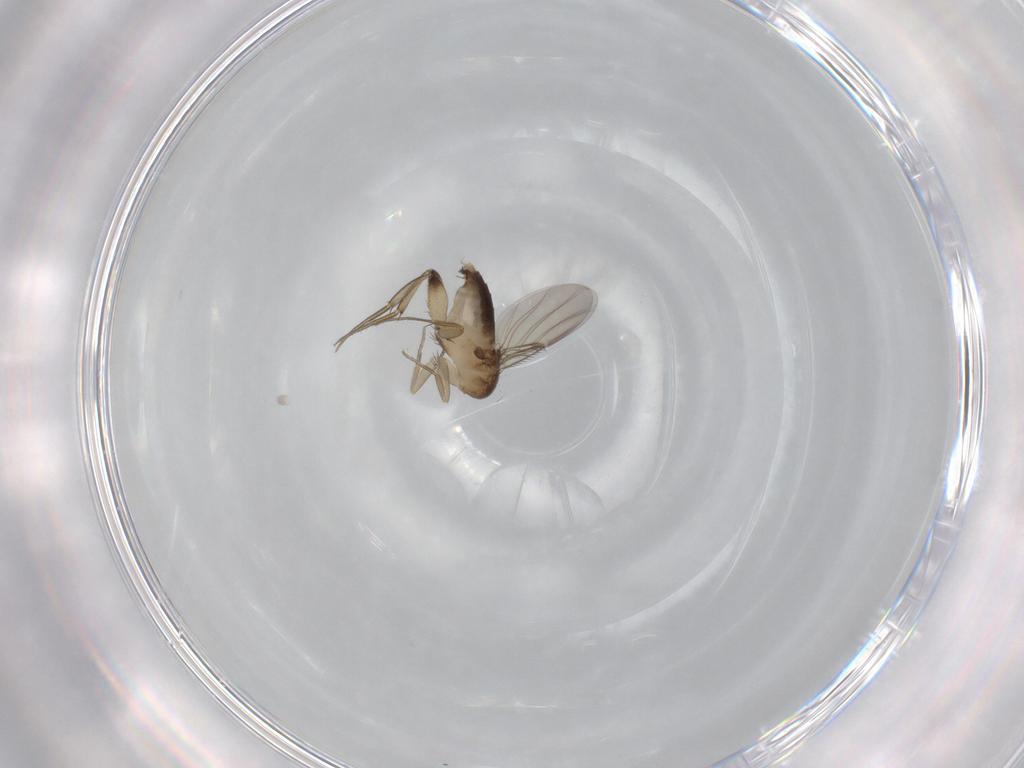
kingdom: Animalia
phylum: Arthropoda
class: Insecta
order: Diptera
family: Phoridae
